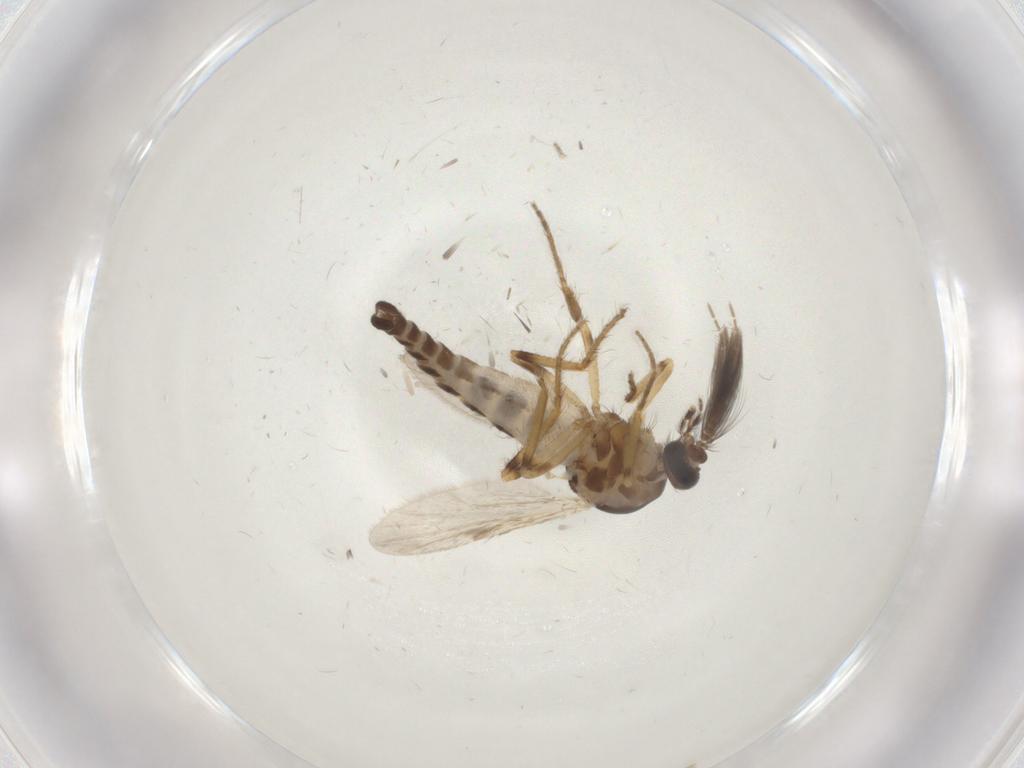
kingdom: Animalia
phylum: Arthropoda
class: Insecta
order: Diptera
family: Ceratopogonidae
